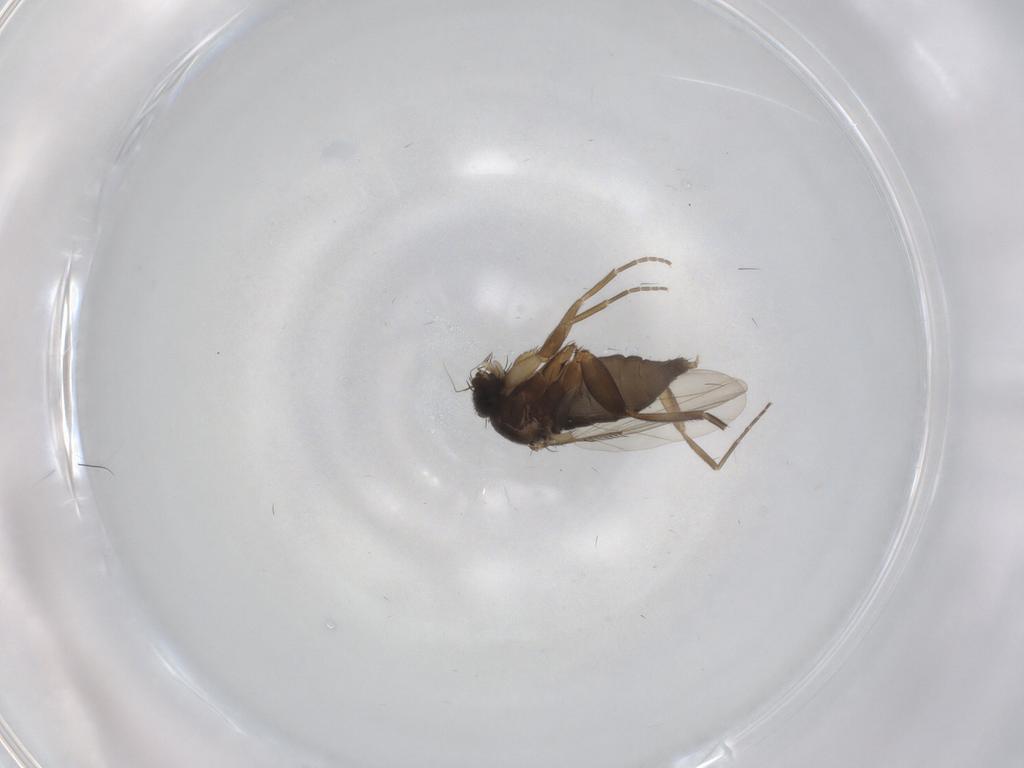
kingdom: Animalia
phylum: Arthropoda
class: Insecta
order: Diptera
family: Phoridae
